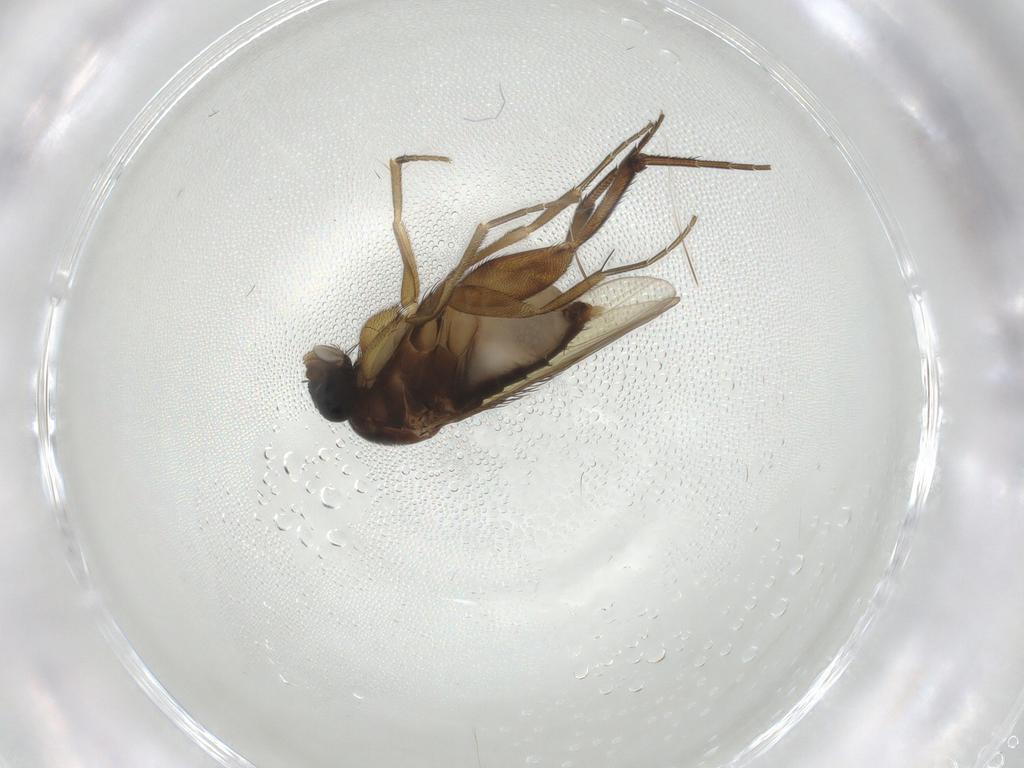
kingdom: Animalia
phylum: Arthropoda
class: Insecta
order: Diptera
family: Phoridae
